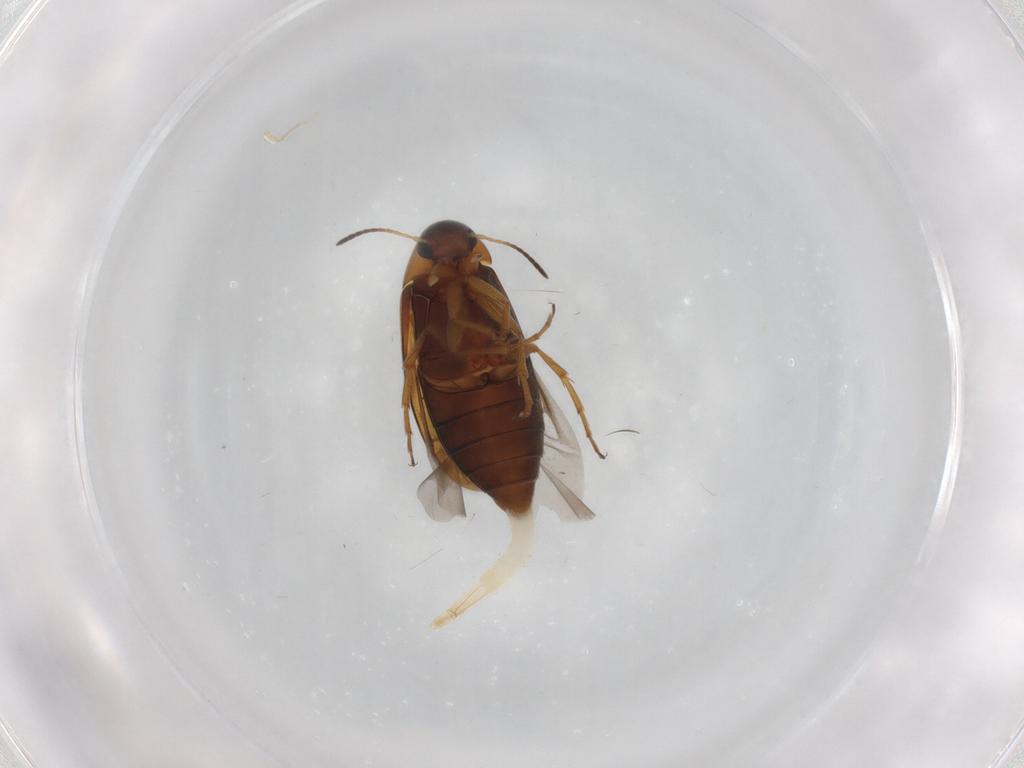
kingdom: Animalia
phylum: Arthropoda
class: Insecta
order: Coleoptera
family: Scraptiidae
